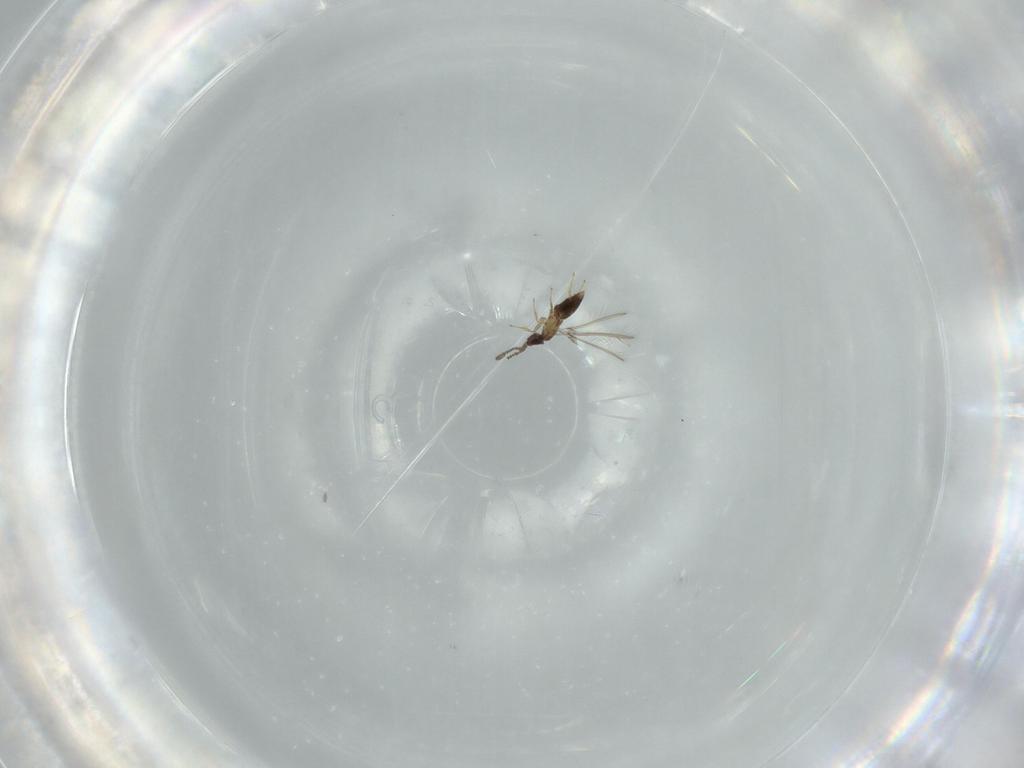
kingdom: Animalia
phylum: Arthropoda
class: Insecta
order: Hymenoptera
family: Mymaridae
